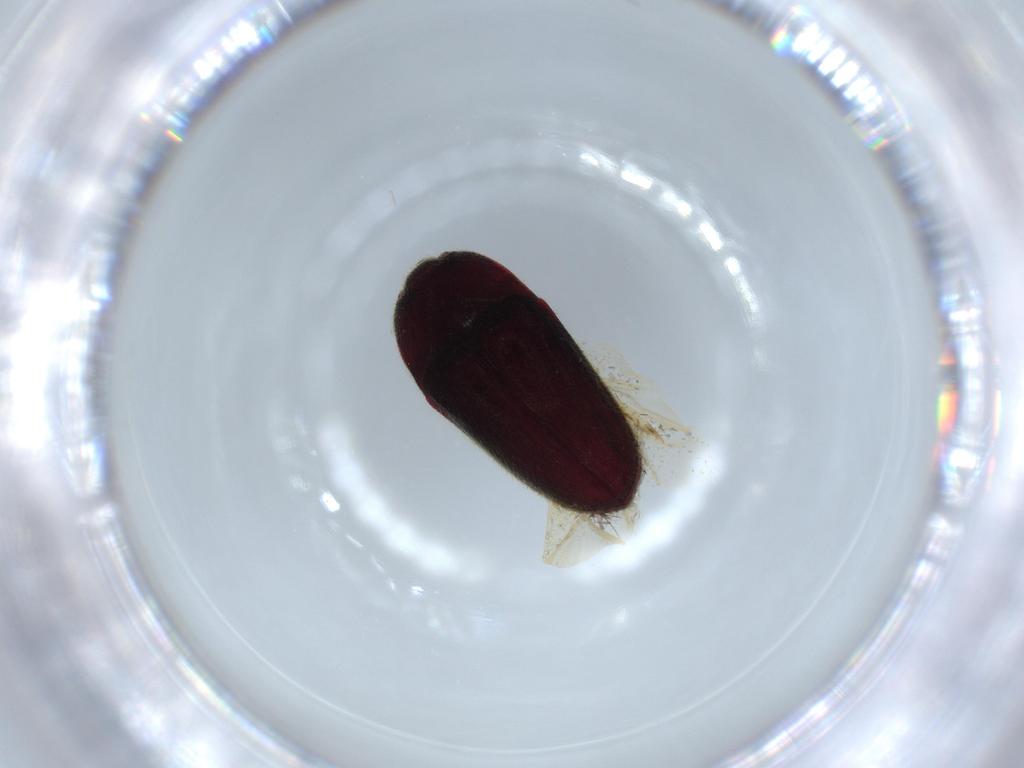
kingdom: Animalia
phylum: Arthropoda
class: Insecta
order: Coleoptera
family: Throscidae
